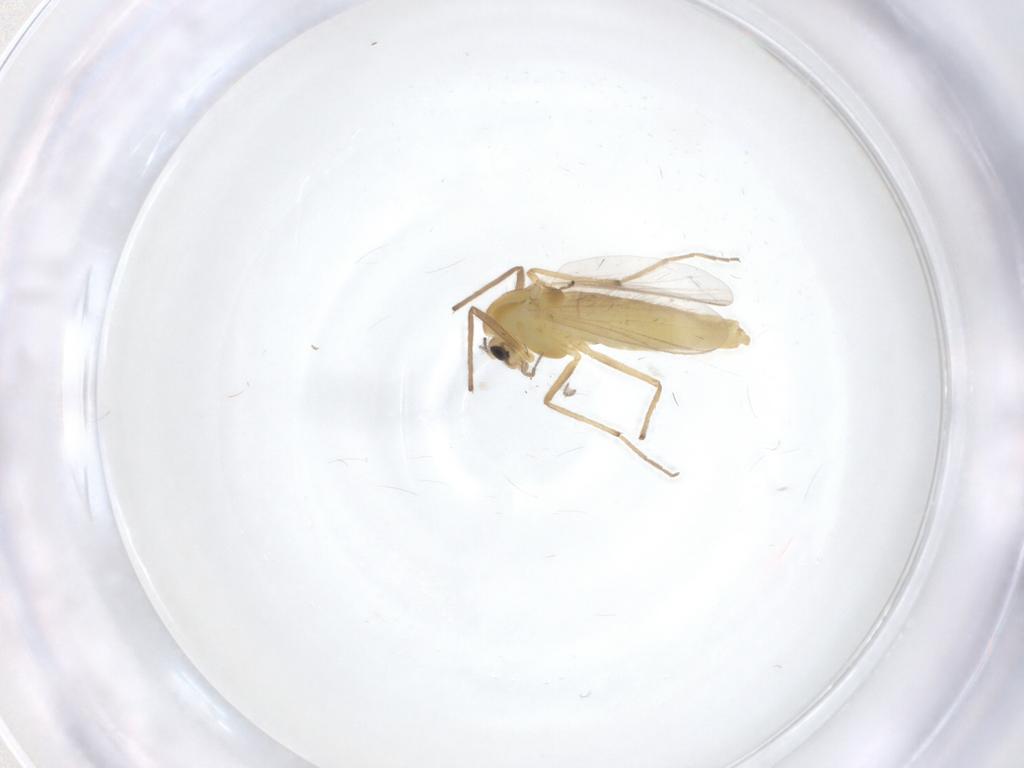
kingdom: Animalia
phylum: Arthropoda
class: Insecta
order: Diptera
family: Chironomidae
